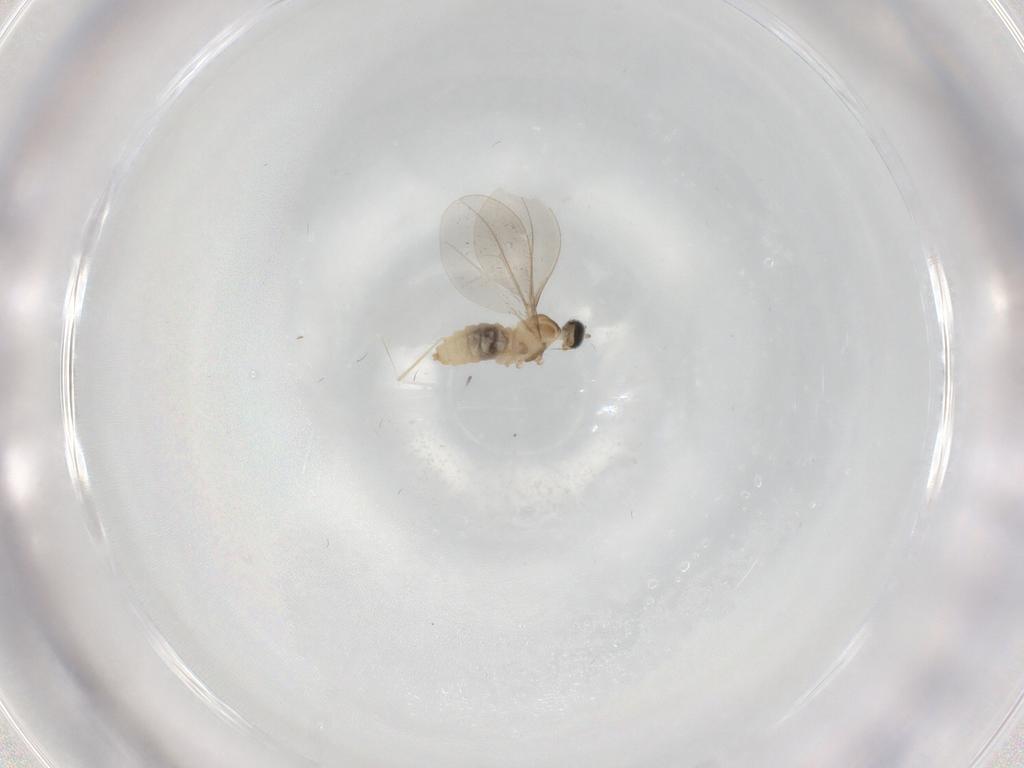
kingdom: Animalia
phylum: Arthropoda
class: Insecta
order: Diptera
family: Cecidomyiidae
